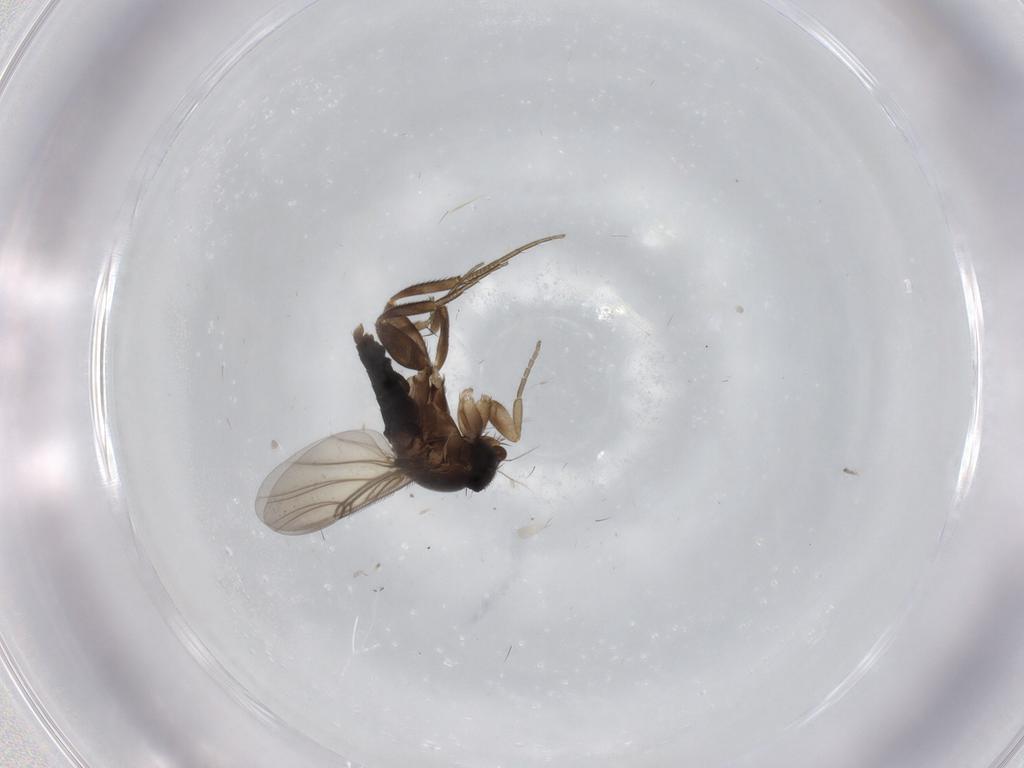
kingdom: Animalia
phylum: Arthropoda
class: Insecta
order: Diptera
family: Phoridae
